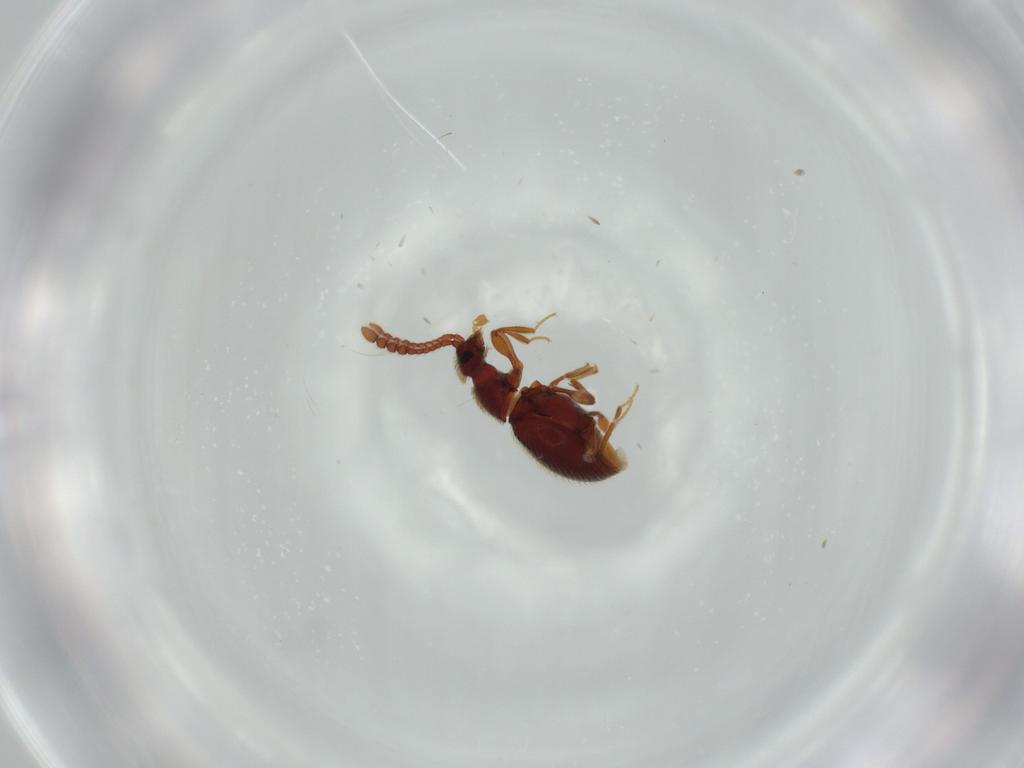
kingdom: Animalia
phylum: Arthropoda
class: Insecta
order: Coleoptera
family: Staphylinidae
